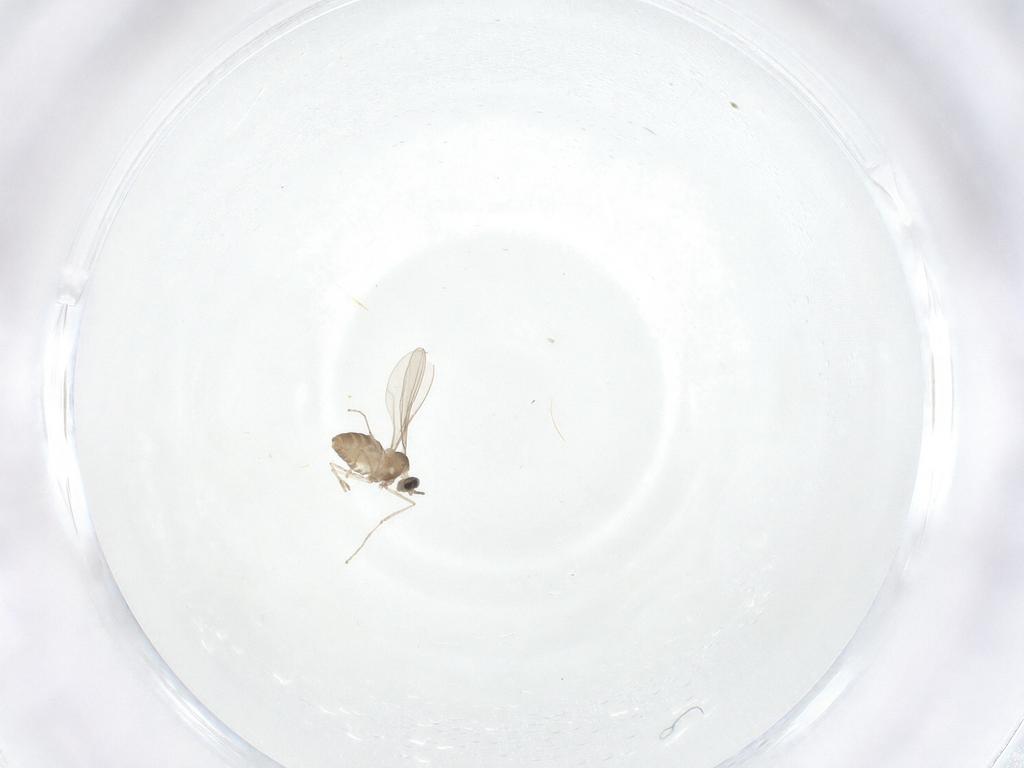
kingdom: Animalia
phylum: Arthropoda
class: Insecta
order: Diptera
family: Cecidomyiidae
